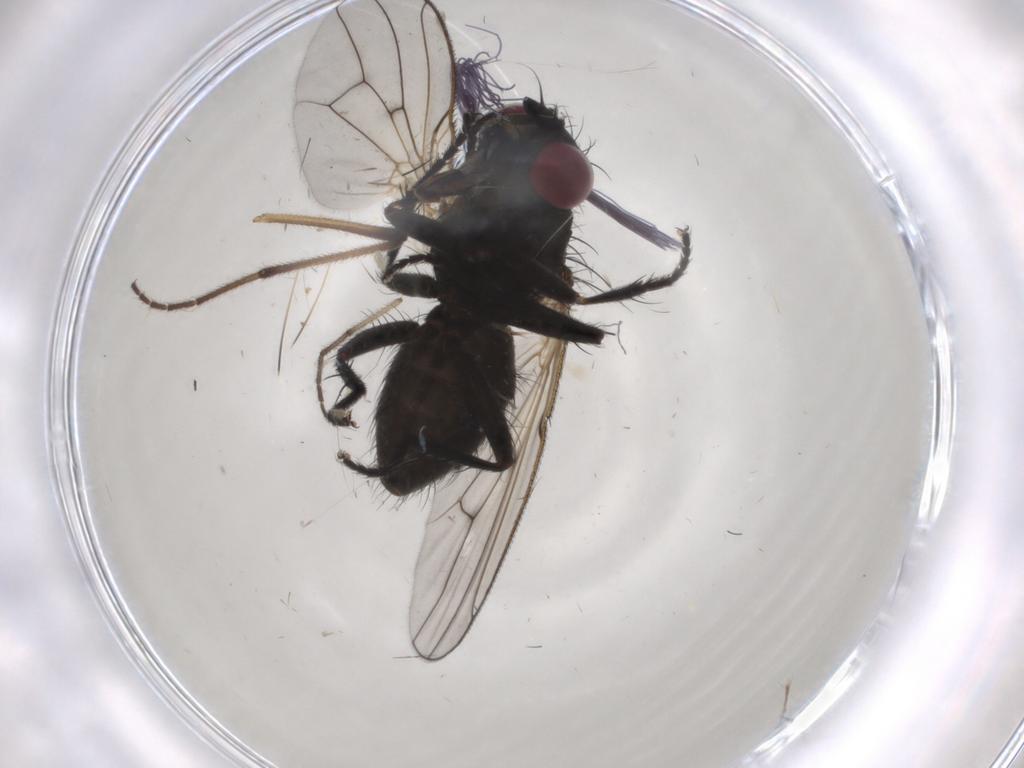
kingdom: Animalia
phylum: Arthropoda
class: Insecta
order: Diptera
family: Muscidae
